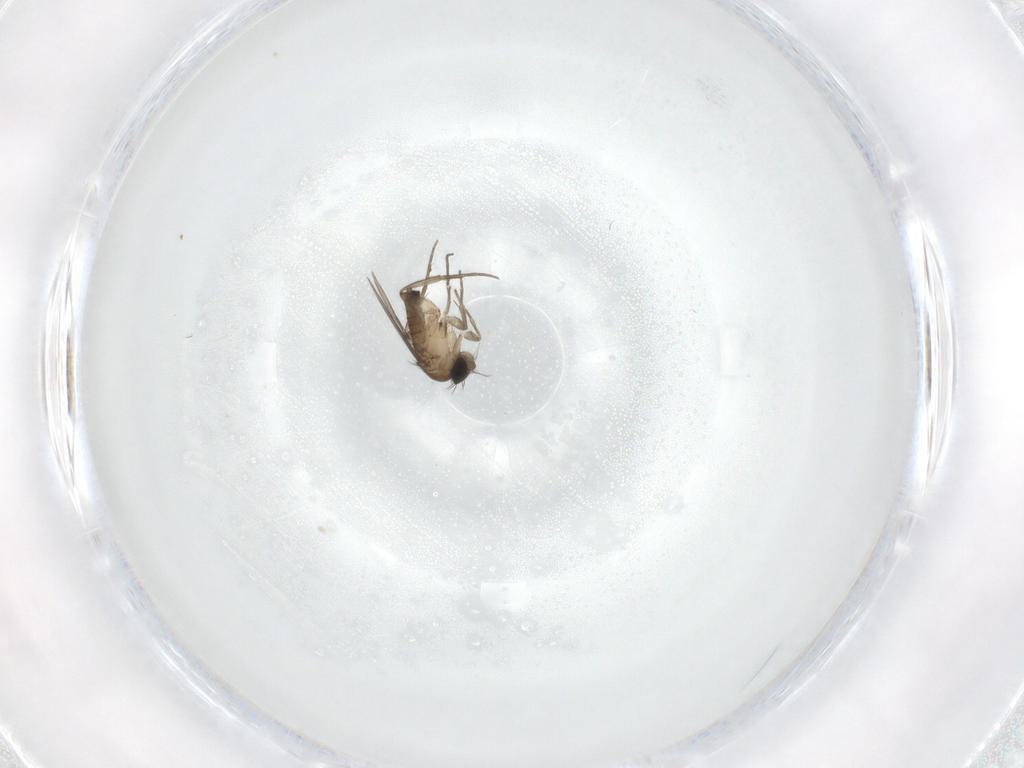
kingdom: Animalia
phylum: Arthropoda
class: Insecta
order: Diptera
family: Phoridae
